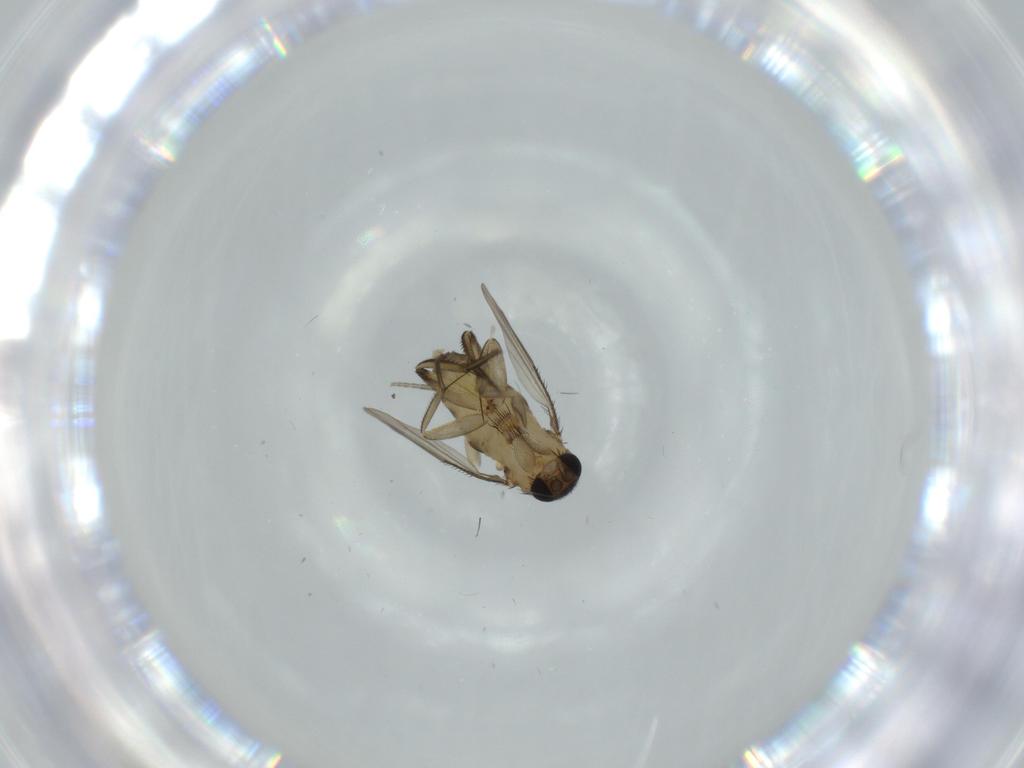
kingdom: Animalia
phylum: Arthropoda
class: Insecta
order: Diptera
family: Phoridae
